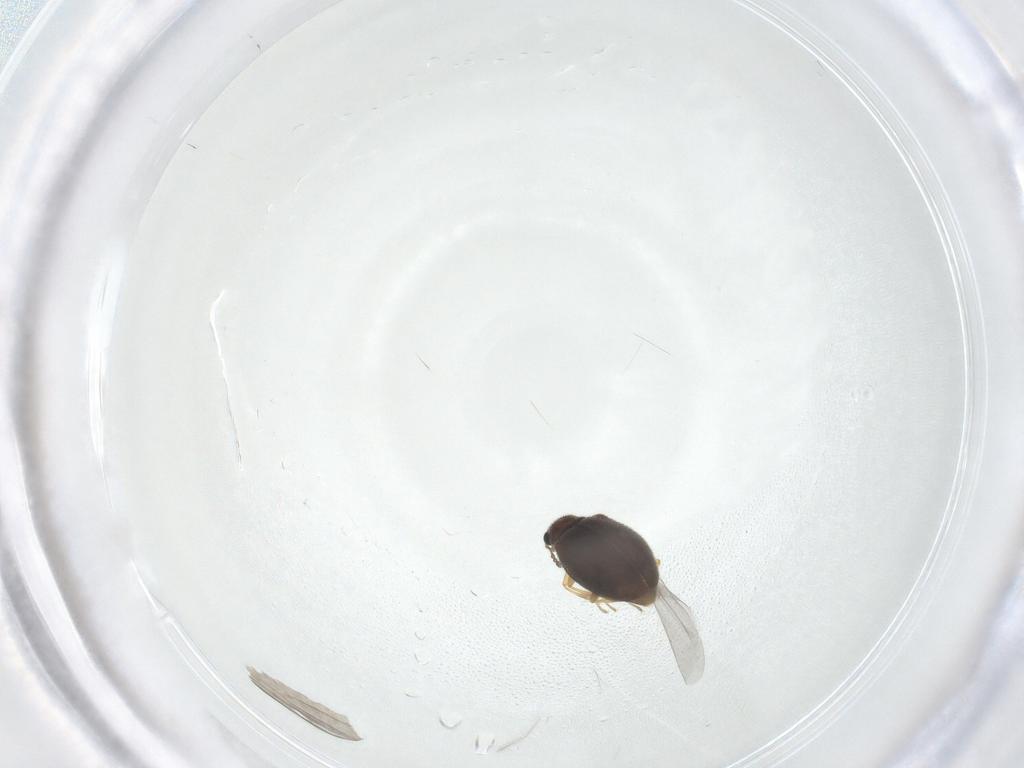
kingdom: Animalia
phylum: Arthropoda
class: Insecta
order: Coleoptera
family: Latridiidae
